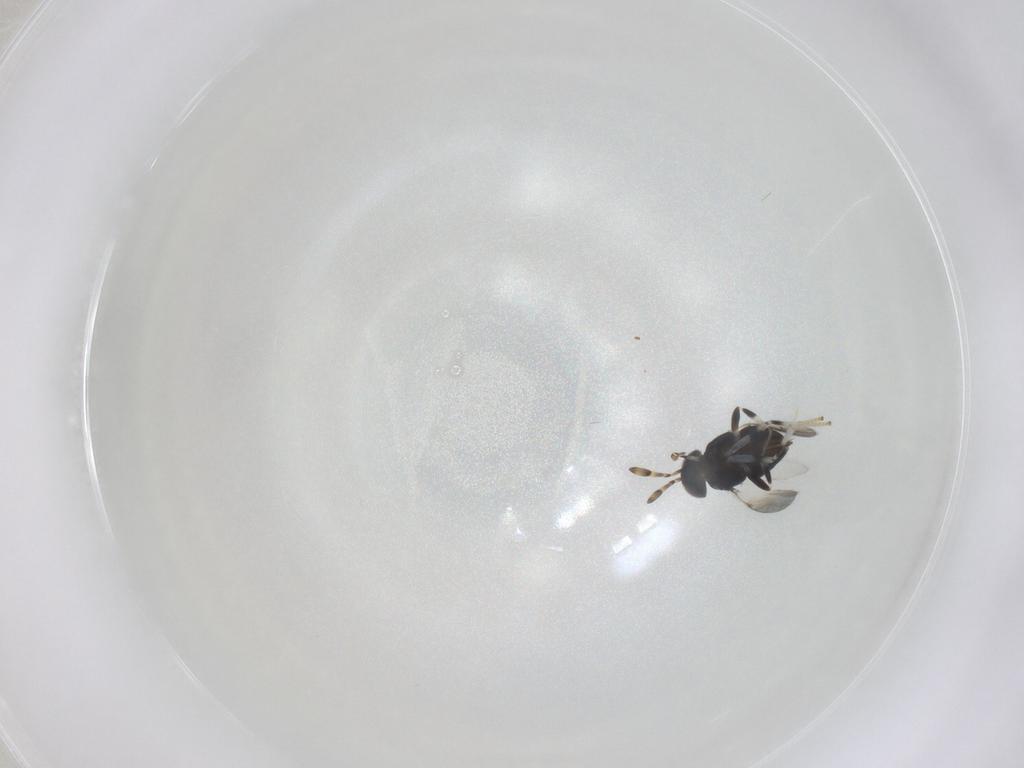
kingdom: Animalia
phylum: Arthropoda
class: Insecta
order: Hymenoptera
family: Encyrtidae
